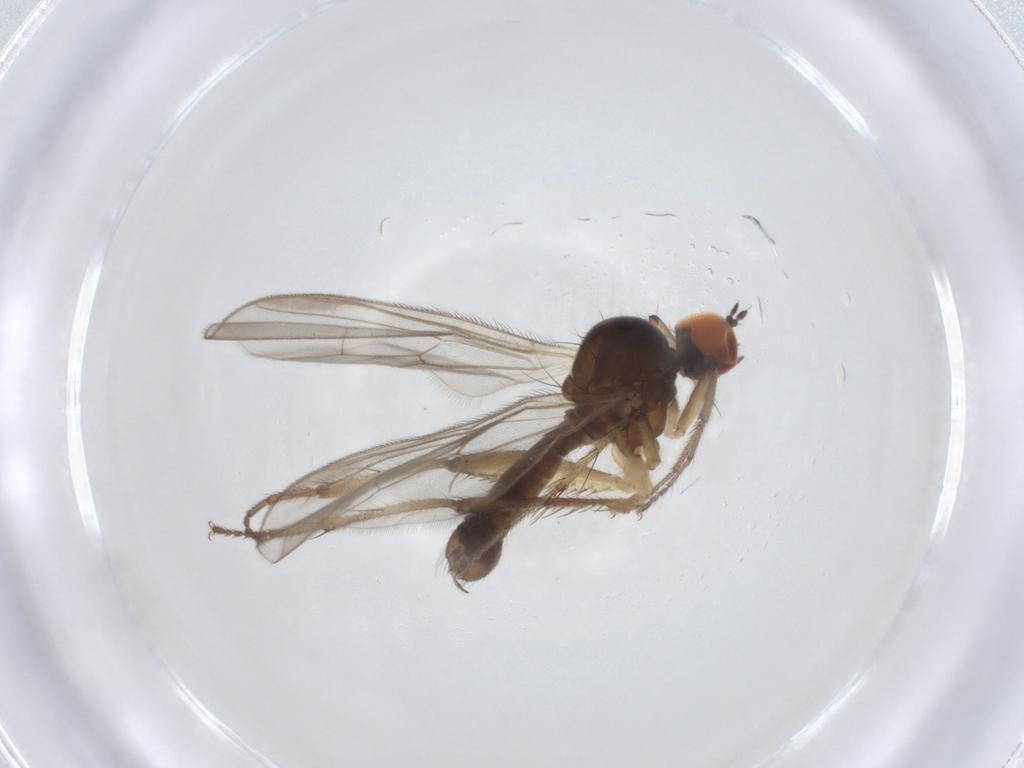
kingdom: Animalia
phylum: Arthropoda
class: Insecta
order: Diptera
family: Hybotidae
